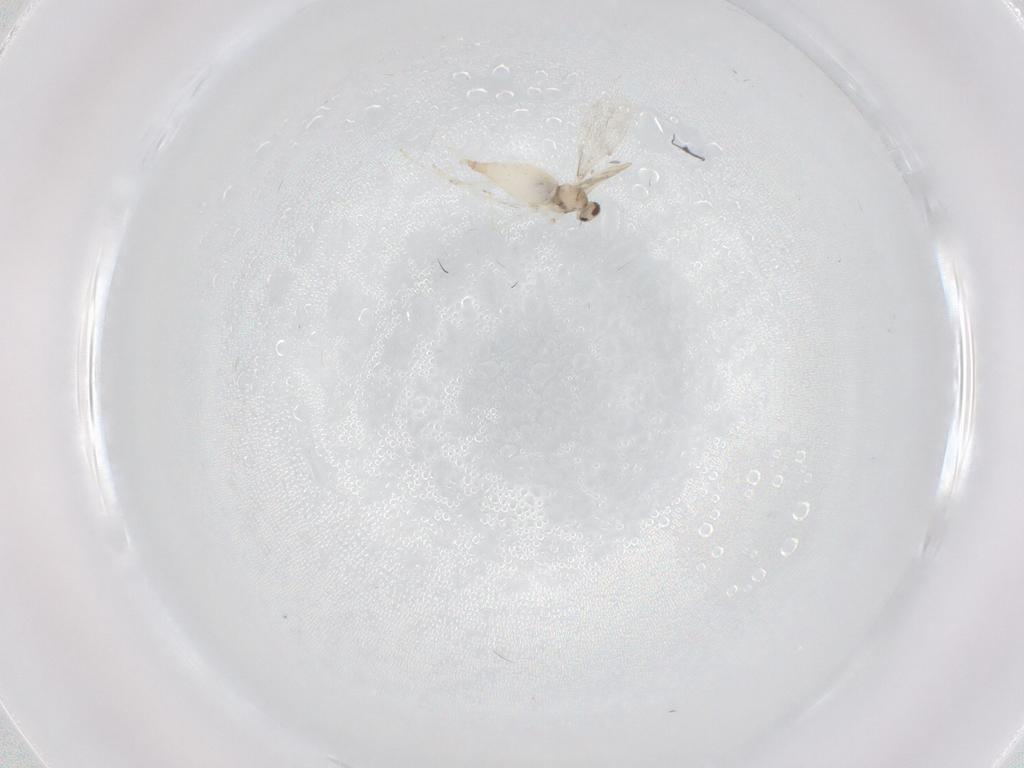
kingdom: Animalia
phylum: Arthropoda
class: Insecta
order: Diptera
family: Cecidomyiidae
